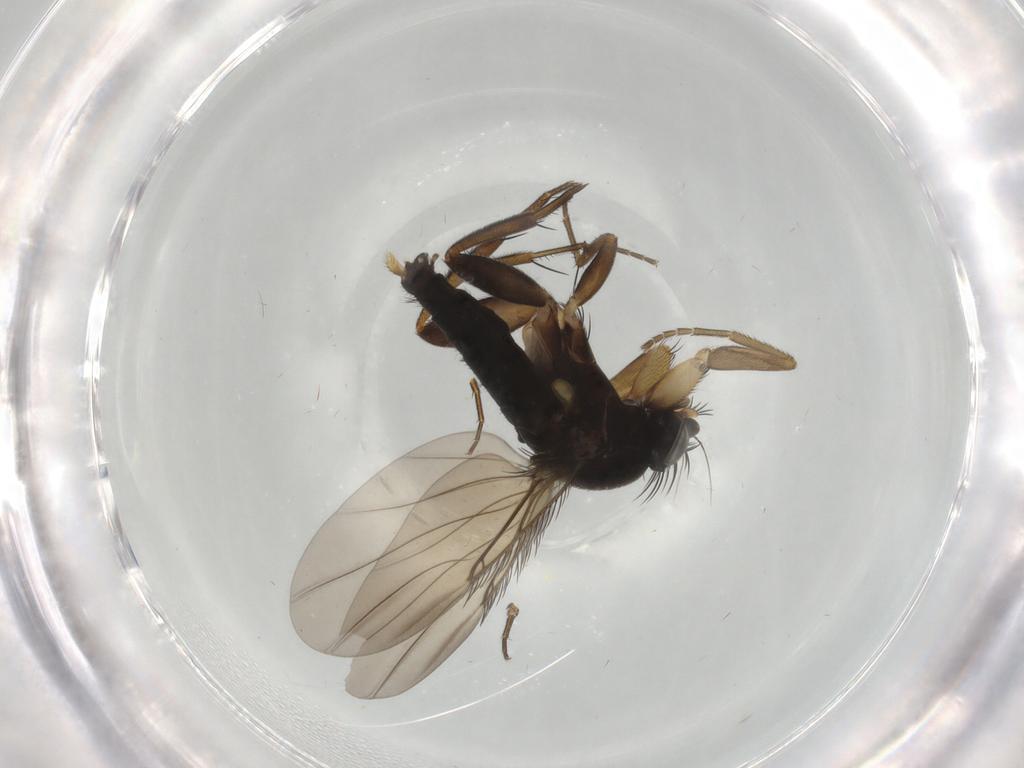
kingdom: Animalia
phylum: Arthropoda
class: Insecta
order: Diptera
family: Phoridae
